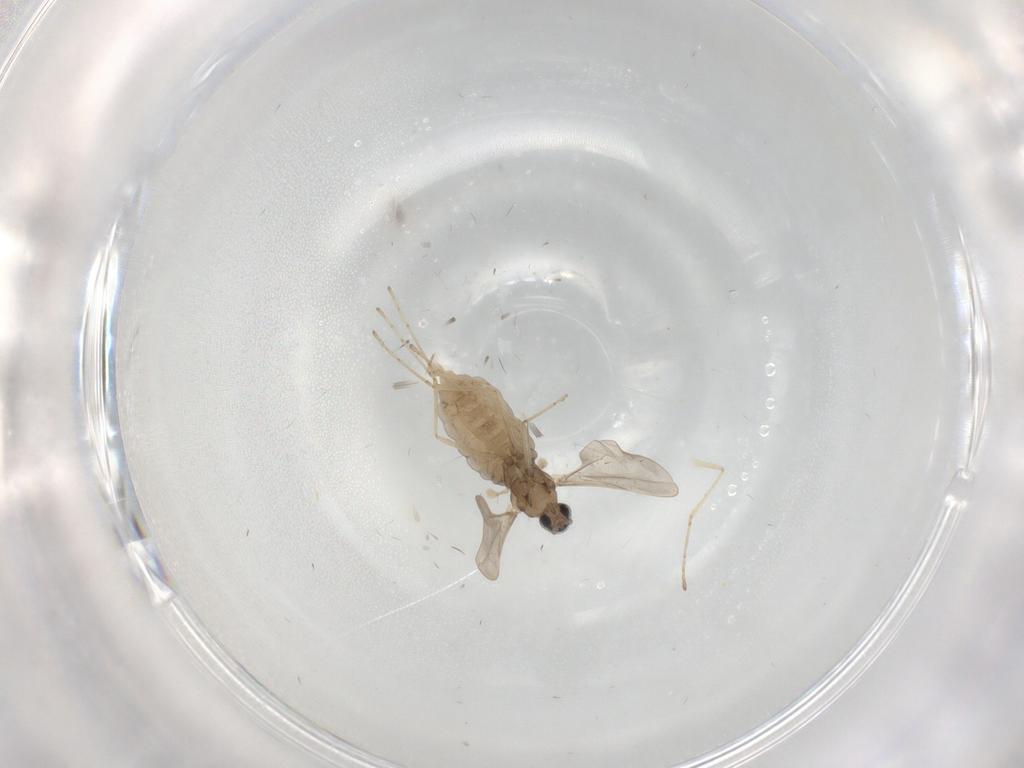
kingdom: Animalia
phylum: Arthropoda
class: Insecta
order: Diptera
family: Cecidomyiidae
